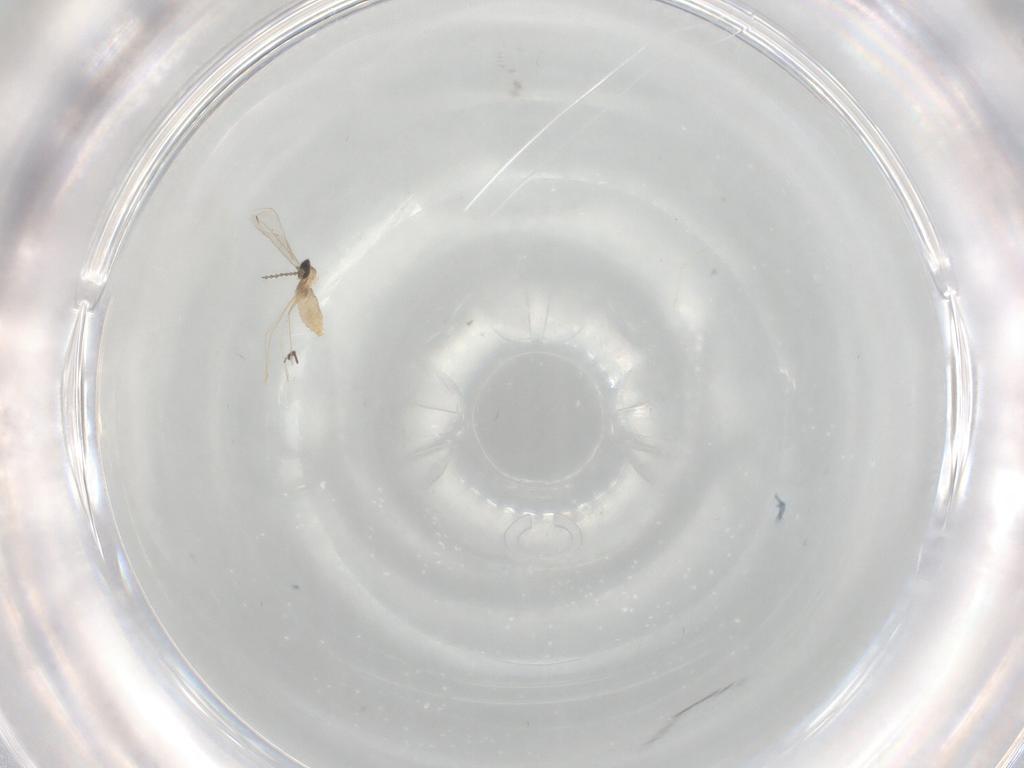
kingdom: Animalia
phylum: Arthropoda
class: Insecta
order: Diptera
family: Phoridae
